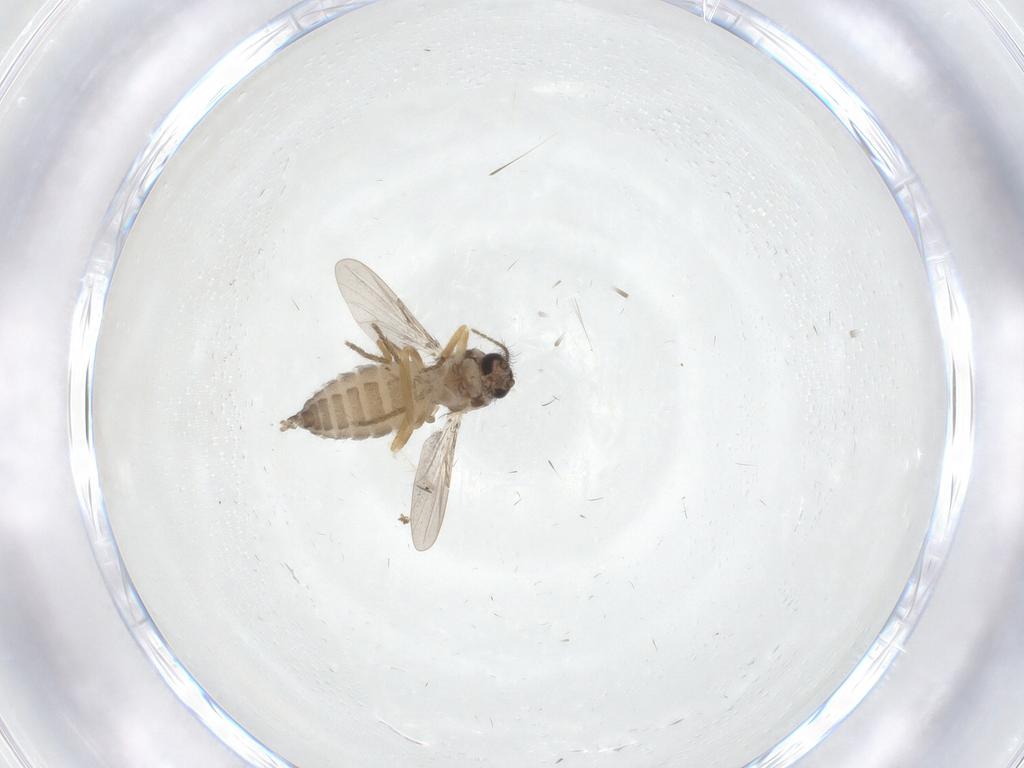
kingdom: Animalia
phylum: Arthropoda
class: Insecta
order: Diptera
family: Ceratopogonidae
